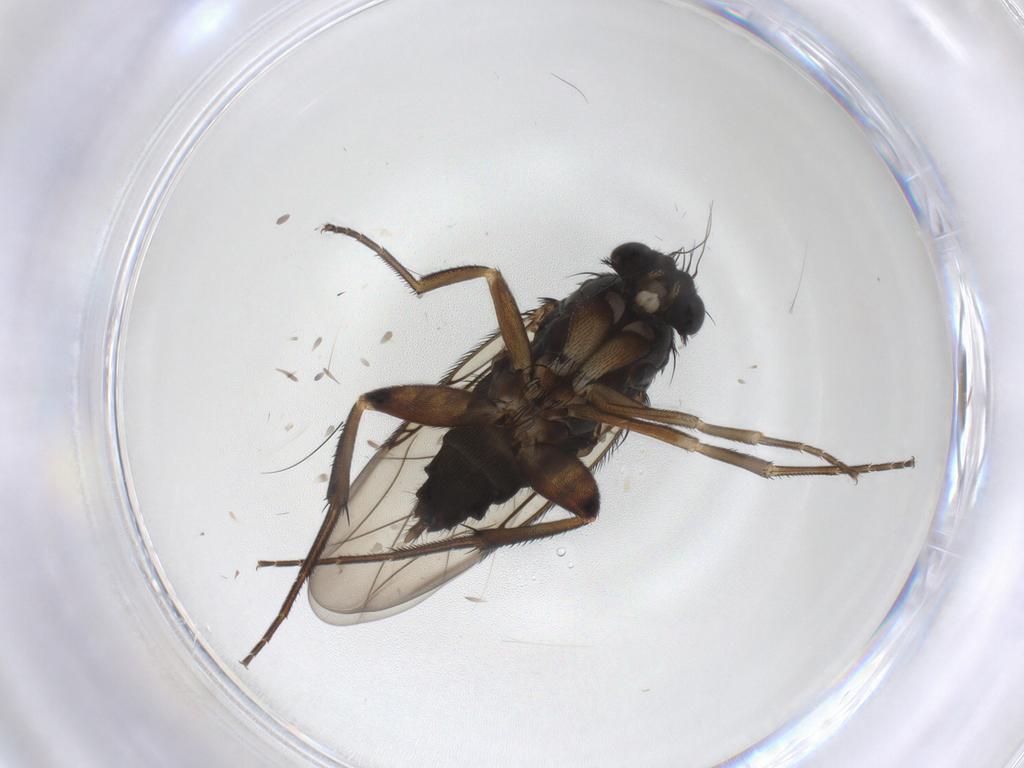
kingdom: Animalia
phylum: Arthropoda
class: Insecta
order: Diptera
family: Phoridae
